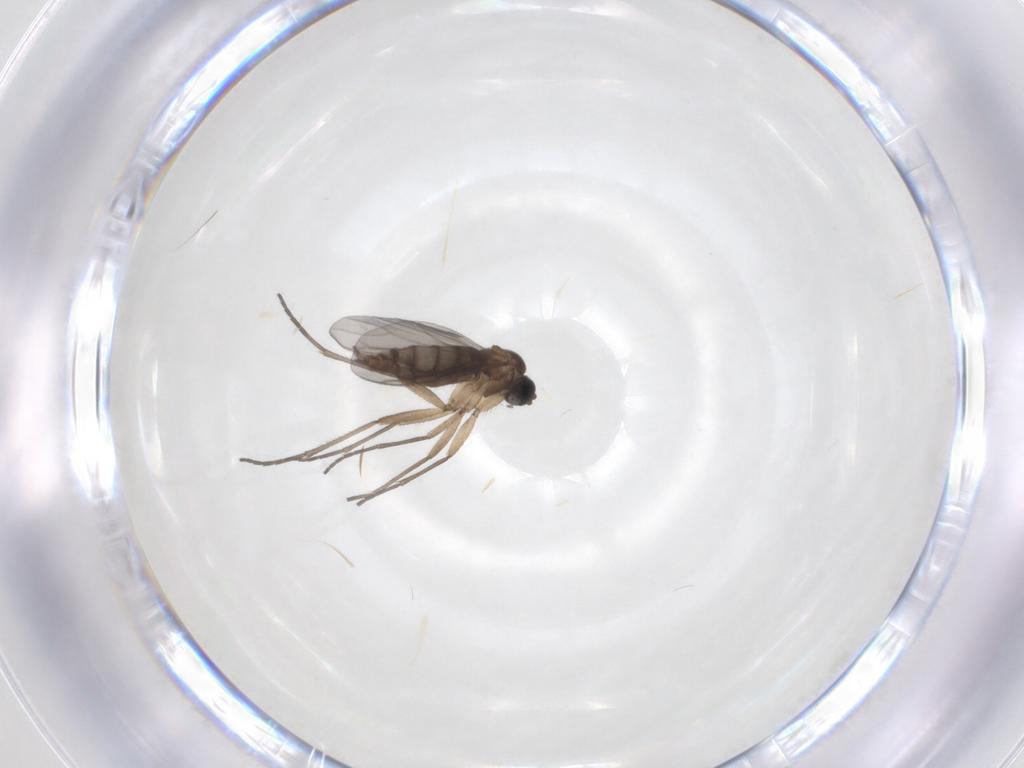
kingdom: Animalia
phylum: Arthropoda
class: Insecta
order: Diptera
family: Sciaridae
